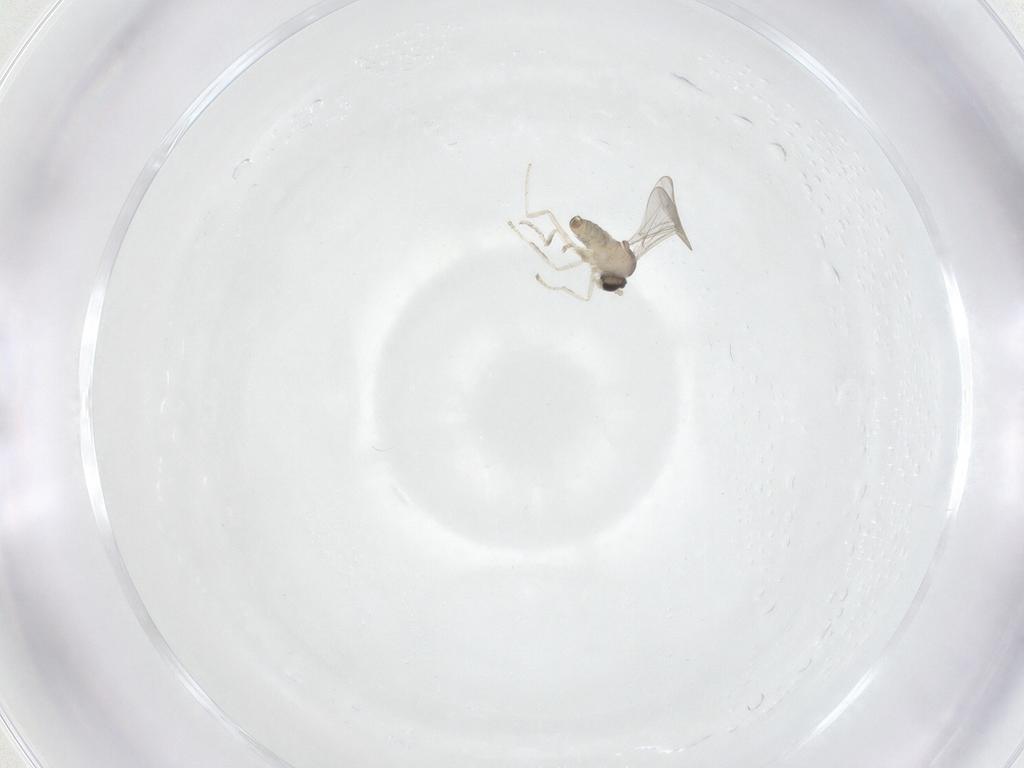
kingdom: Animalia
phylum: Arthropoda
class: Insecta
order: Diptera
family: Cecidomyiidae
